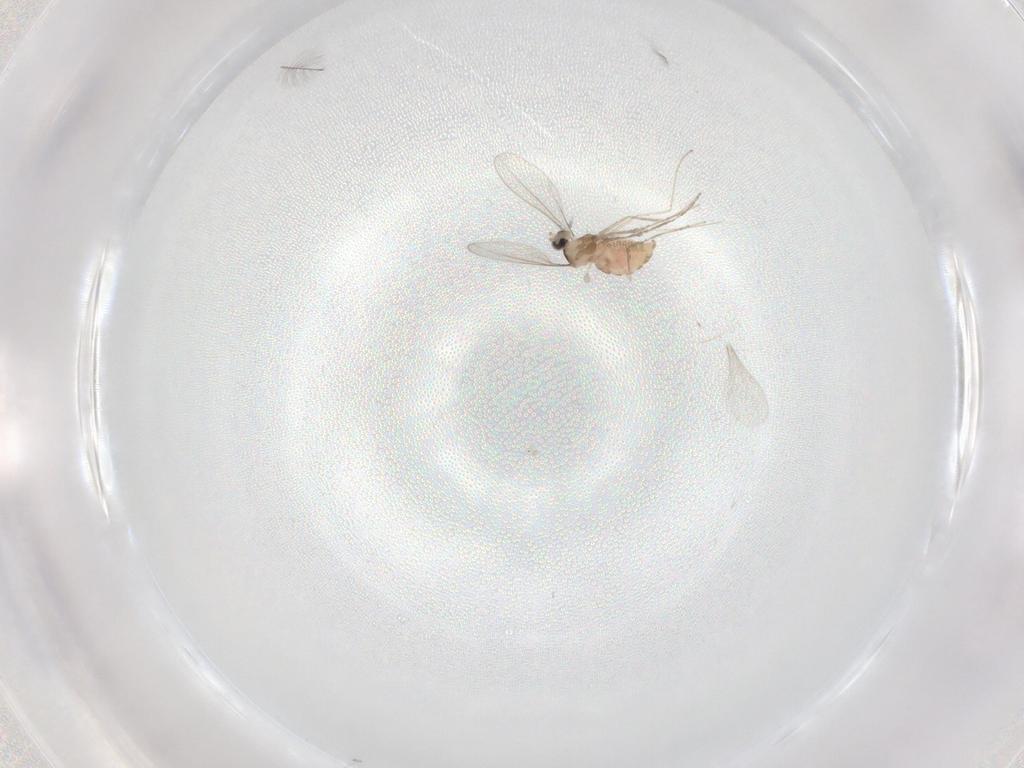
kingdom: Animalia
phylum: Arthropoda
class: Insecta
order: Diptera
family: Cecidomyiidae
